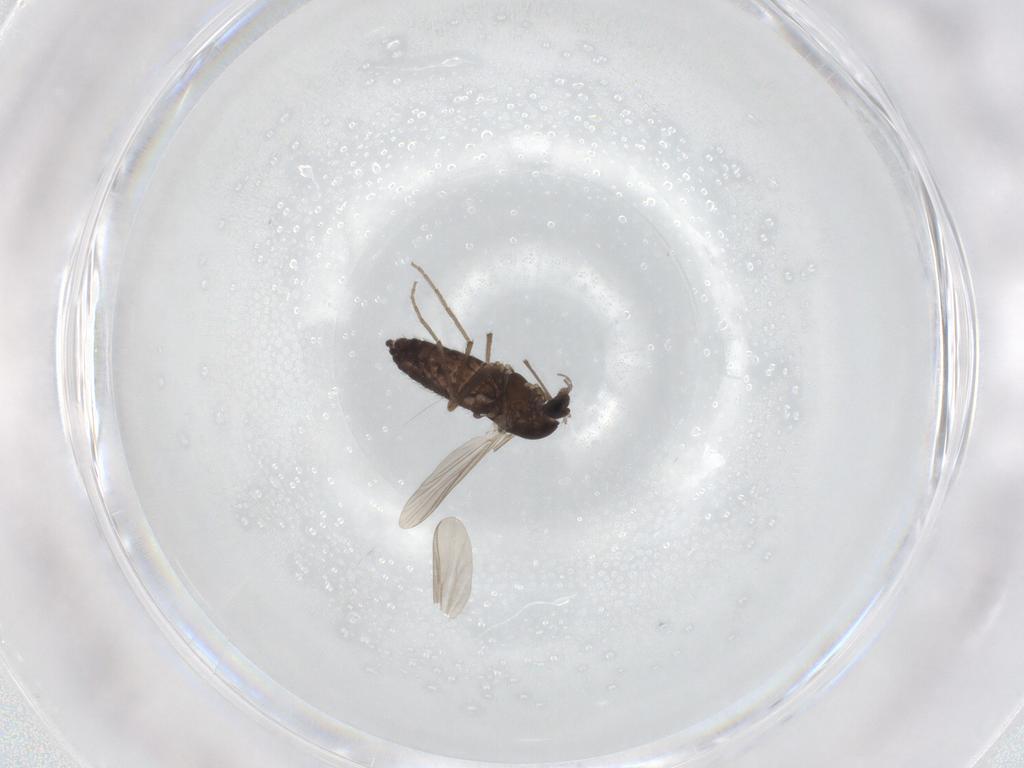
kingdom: Animalia
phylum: Arthropoda
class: Insecta
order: Diptera
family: Chironomidae
